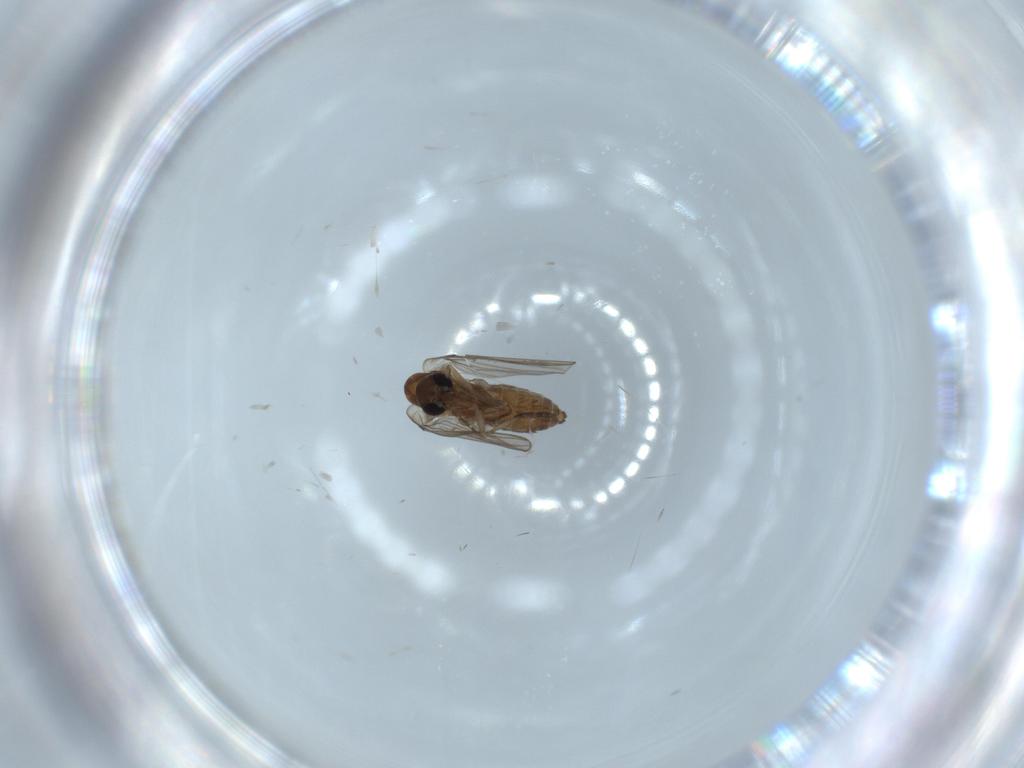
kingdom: Animalia
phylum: Arthropoda
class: Insecta
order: Diptera
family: Psychodidae
